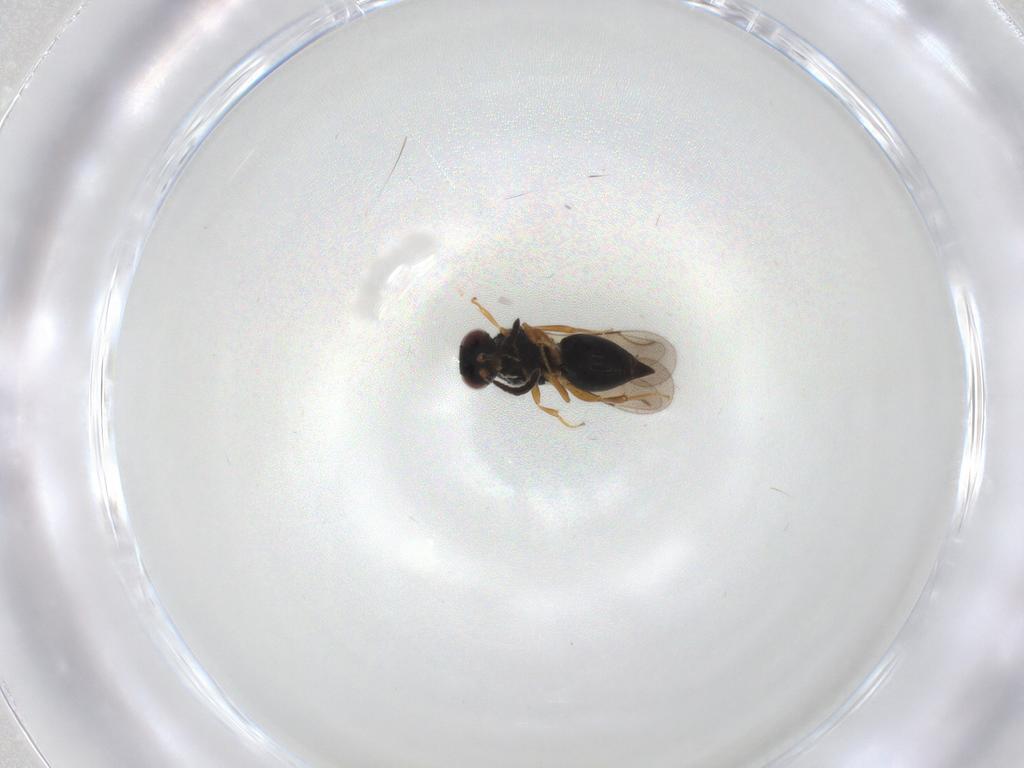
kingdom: Animalia
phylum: Arthropoda
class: Insecta
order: Hymenoptera
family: Ceraphronidae
